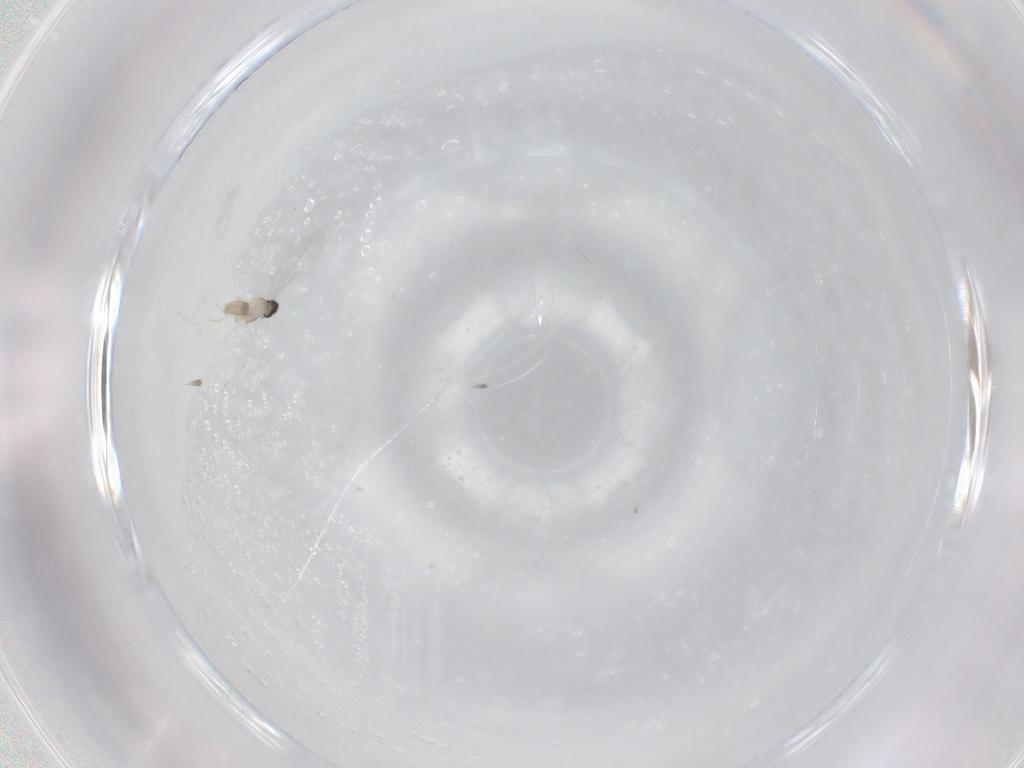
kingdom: Animalia
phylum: Arthropoda
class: Insecta
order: Diptera
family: Cecidomyiidae
